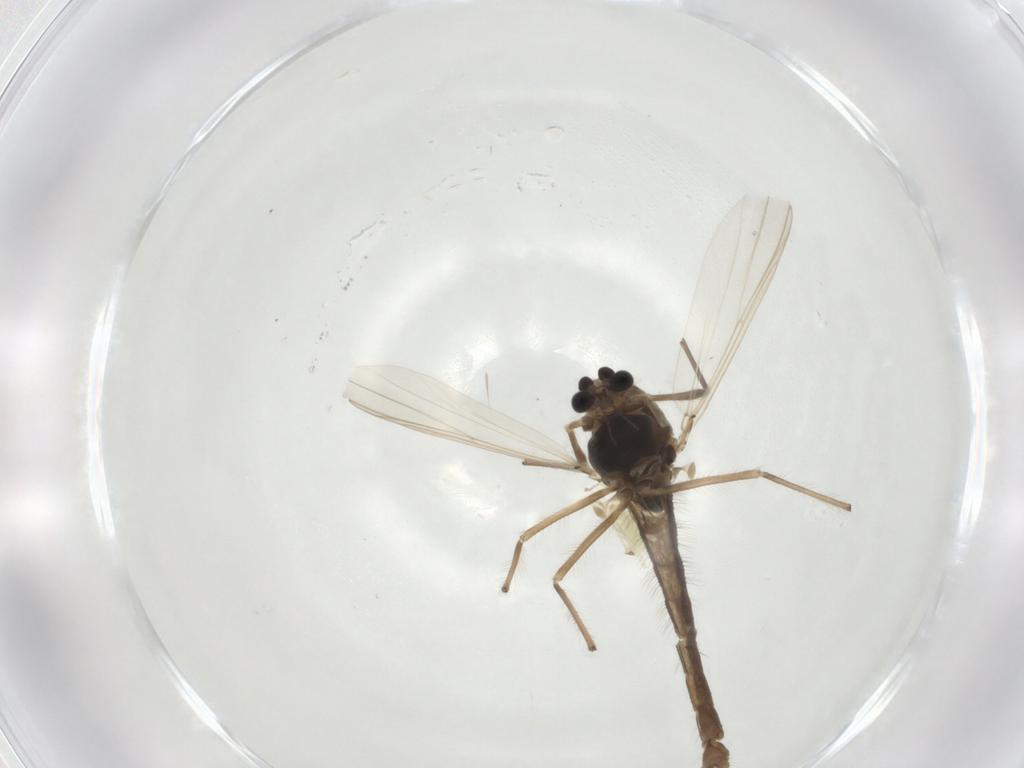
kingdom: Animalia
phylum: Arthropoda
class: Insecta
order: Diptera
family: Chironomidae
